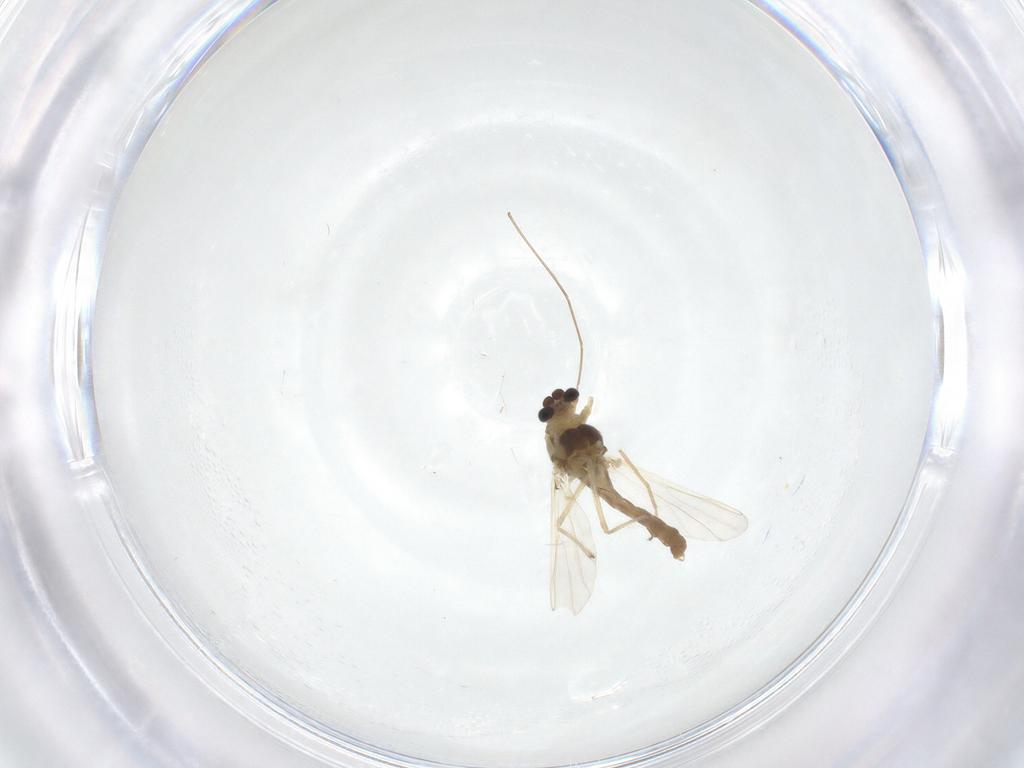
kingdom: Animalia
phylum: Arthropoda
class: Insecta
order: Diptera
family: Chironomidae
